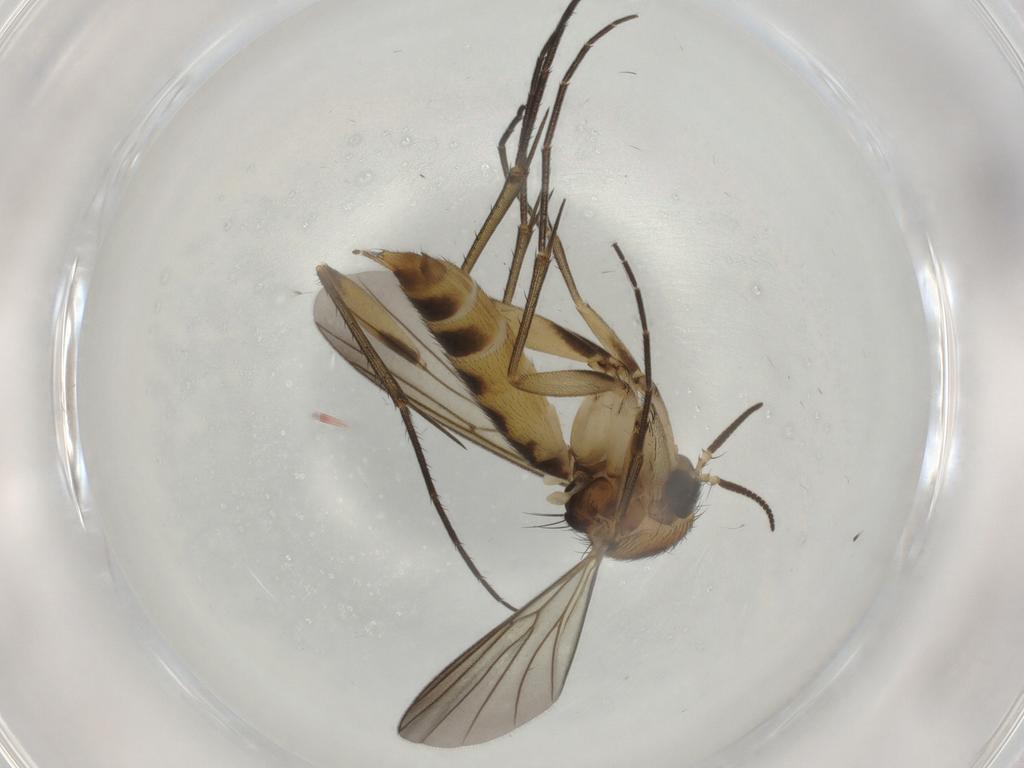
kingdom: Animalia
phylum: Arthropoda
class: Insecta
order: Diptera
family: Mycetophilidae
